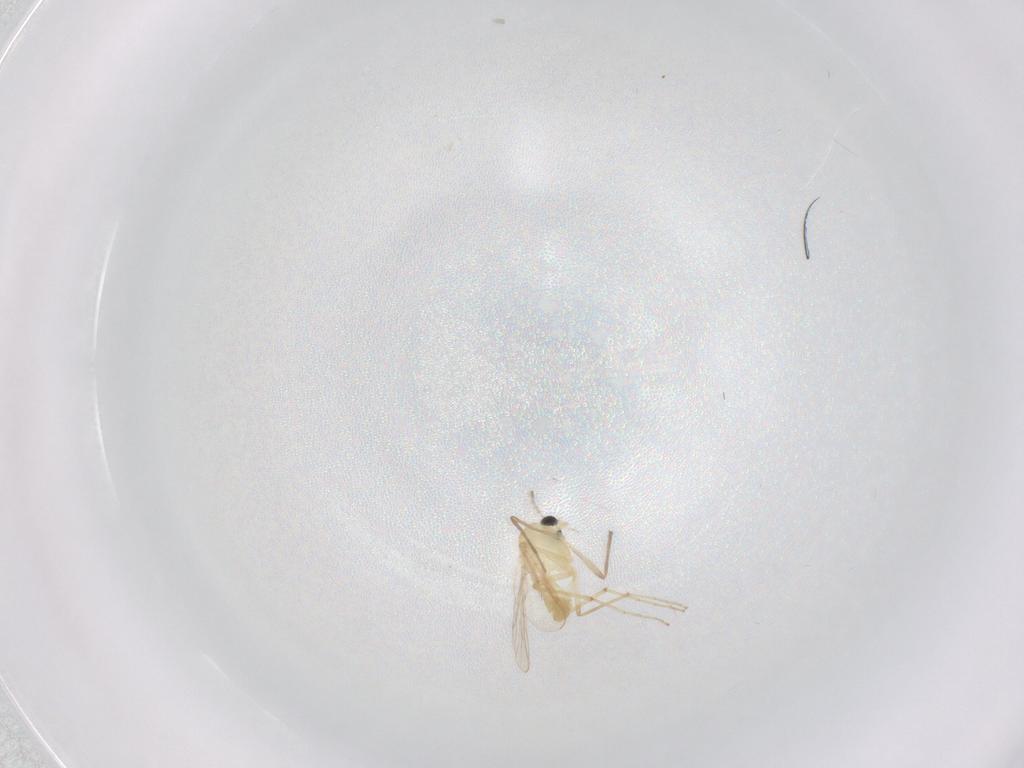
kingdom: Animalia
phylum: Arthropoda
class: Insecta
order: Diptera
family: Chironomidae
